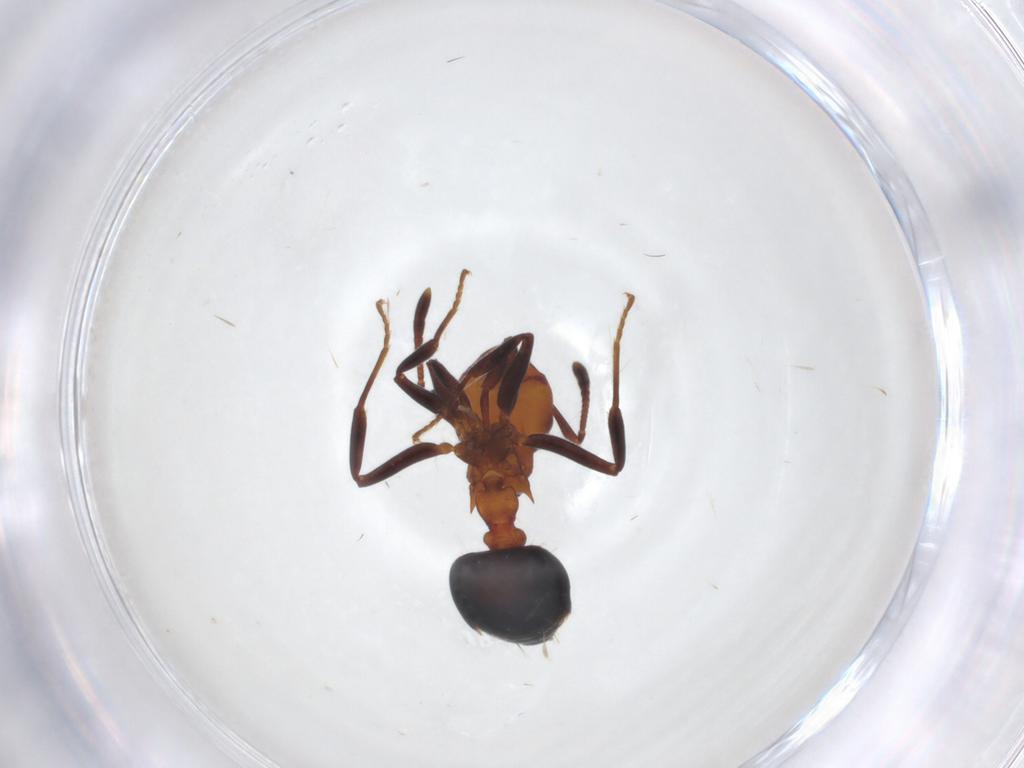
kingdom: Animalia
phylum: Arthropoda
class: Insecta
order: Hymenoptera
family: Formicidae
